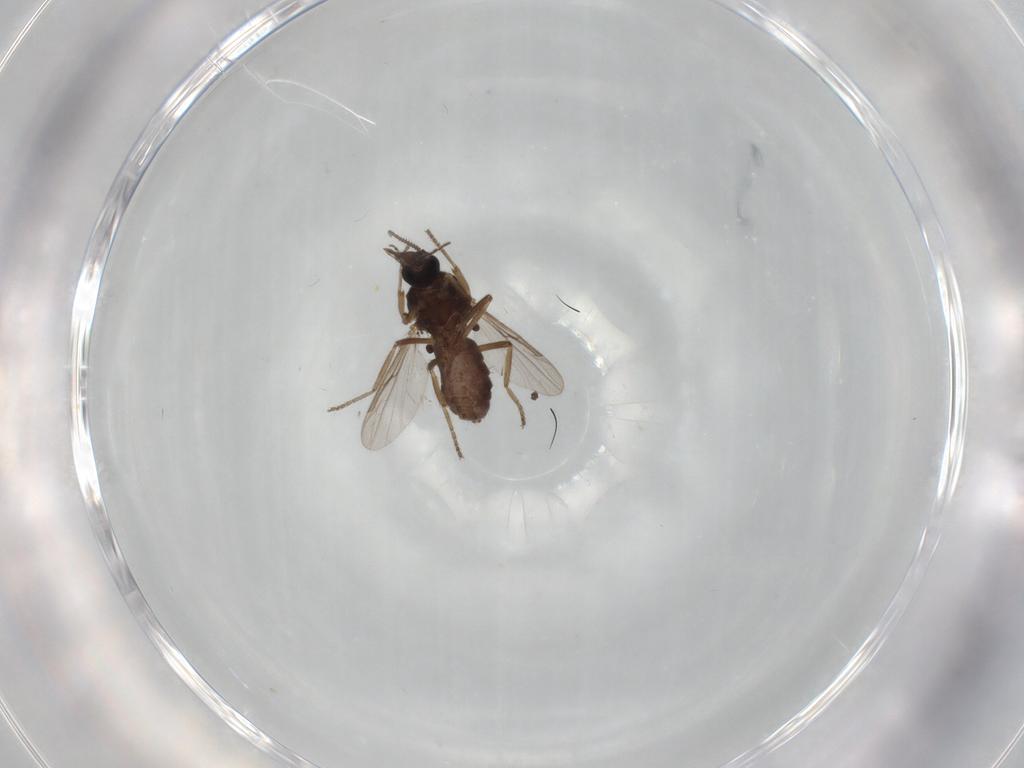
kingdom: Animalia
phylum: Arthropoda
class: Insecta
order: Diptera
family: Ceratopogonidae
